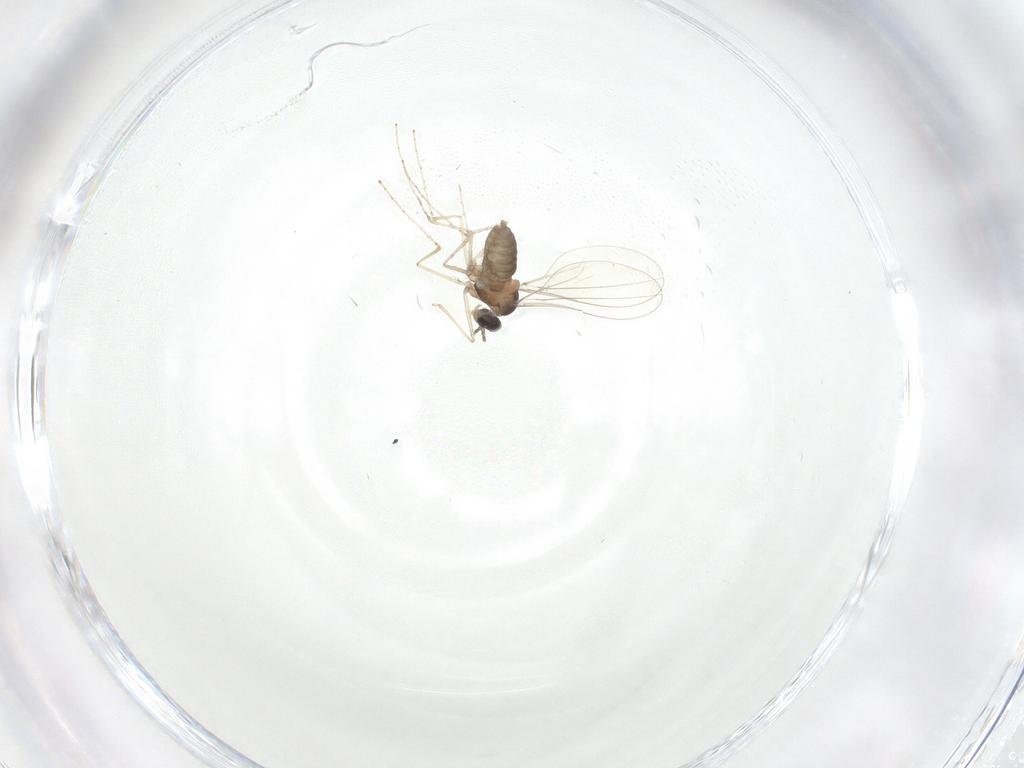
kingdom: Animalia
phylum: Arthropoda
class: Insecta
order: Diptera
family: Cecidomyiidae
